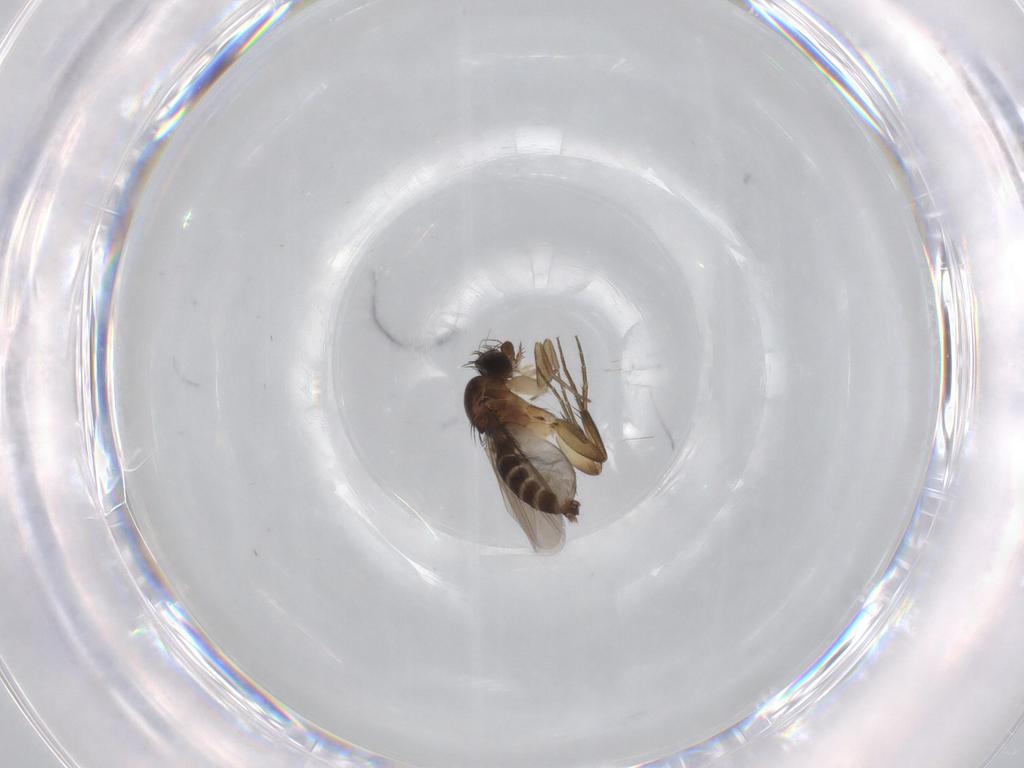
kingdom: Animalia
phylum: Arthropoda
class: Insecta
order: Diptera
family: Phoridae
